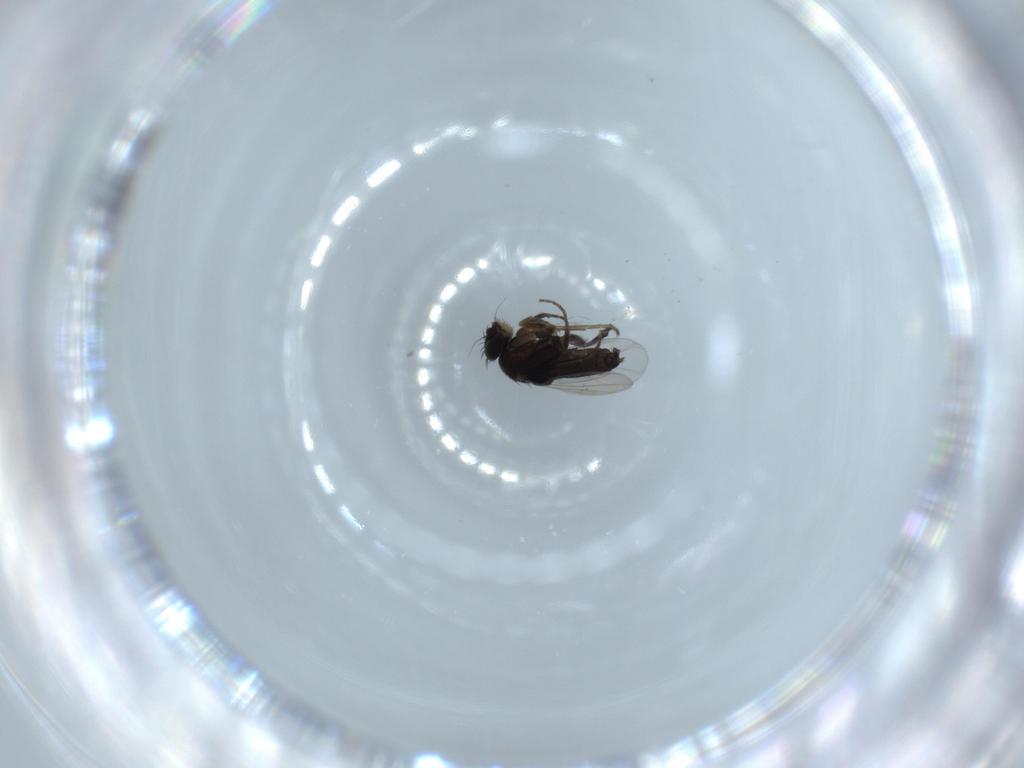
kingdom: Animalia
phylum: Arthropoda
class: Insecta
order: Diptera
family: Phoridae
